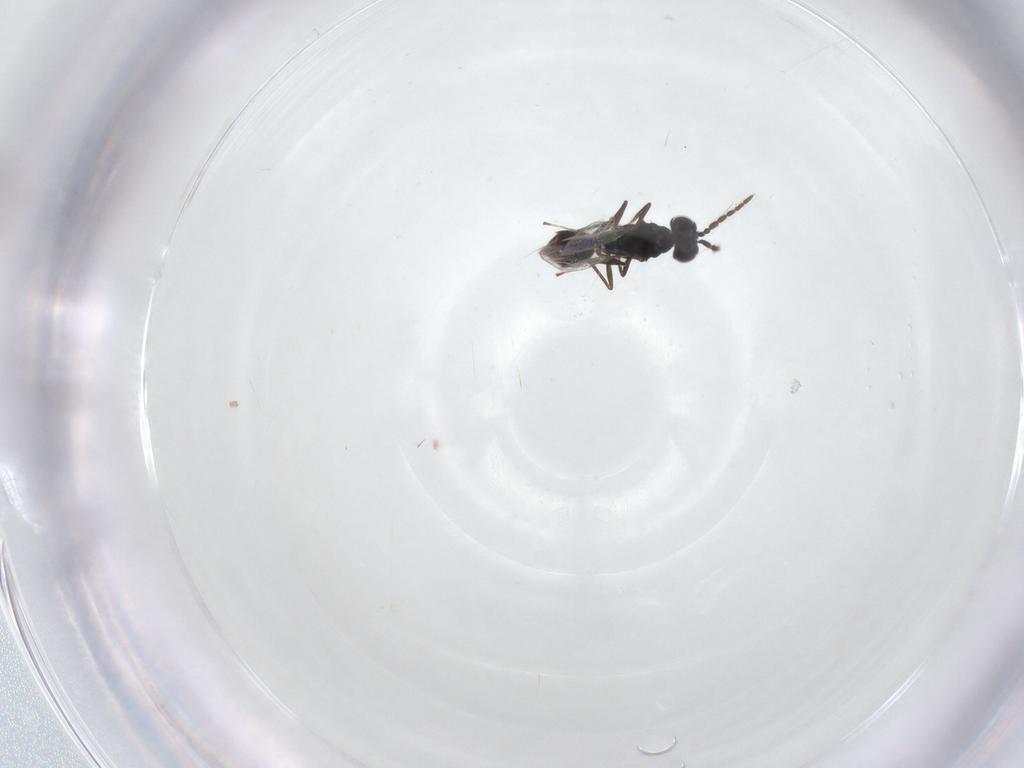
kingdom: Animalia
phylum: Arthropoda
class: Insecta
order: Hymenoptera
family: Eulophidae
